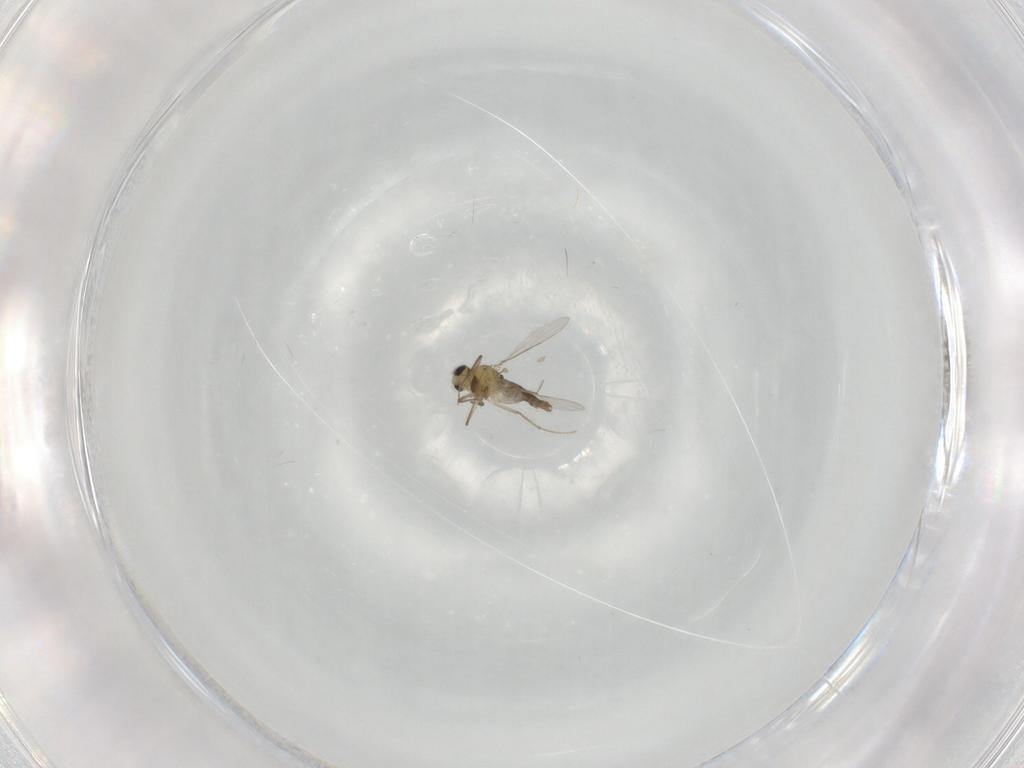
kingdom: Animalia
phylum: Arthropoda
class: Insecta
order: Diptera
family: Chironomidae
